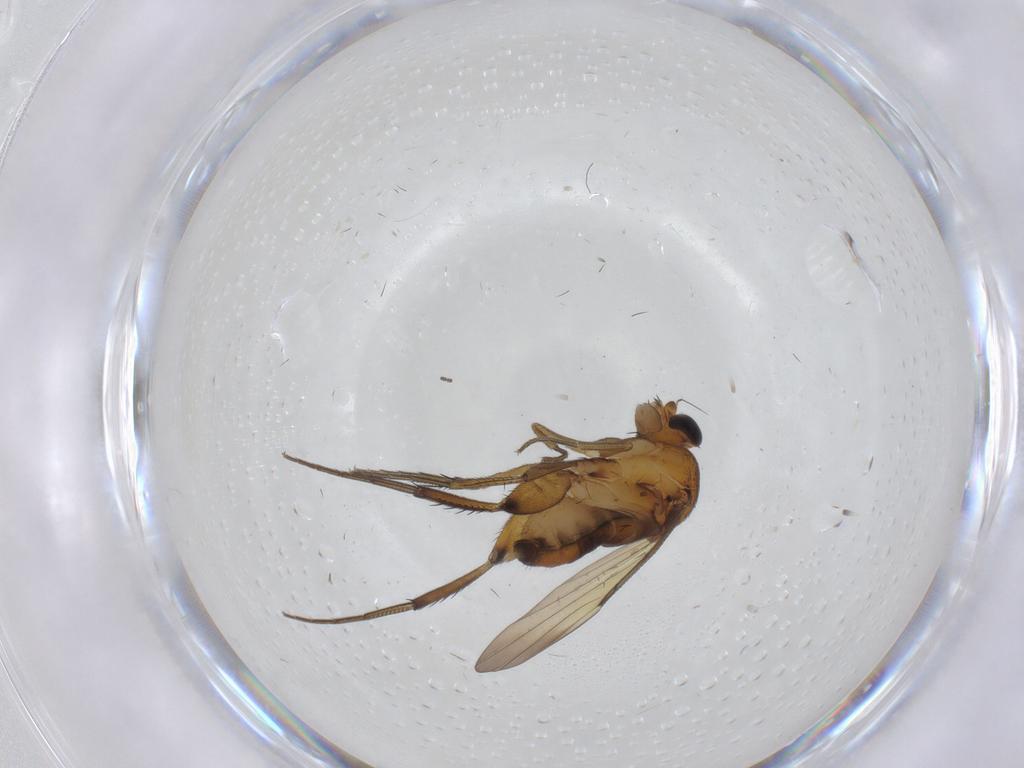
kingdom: Animalia
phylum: Arthropoda
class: Insecta
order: Diptera
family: Phoridae
